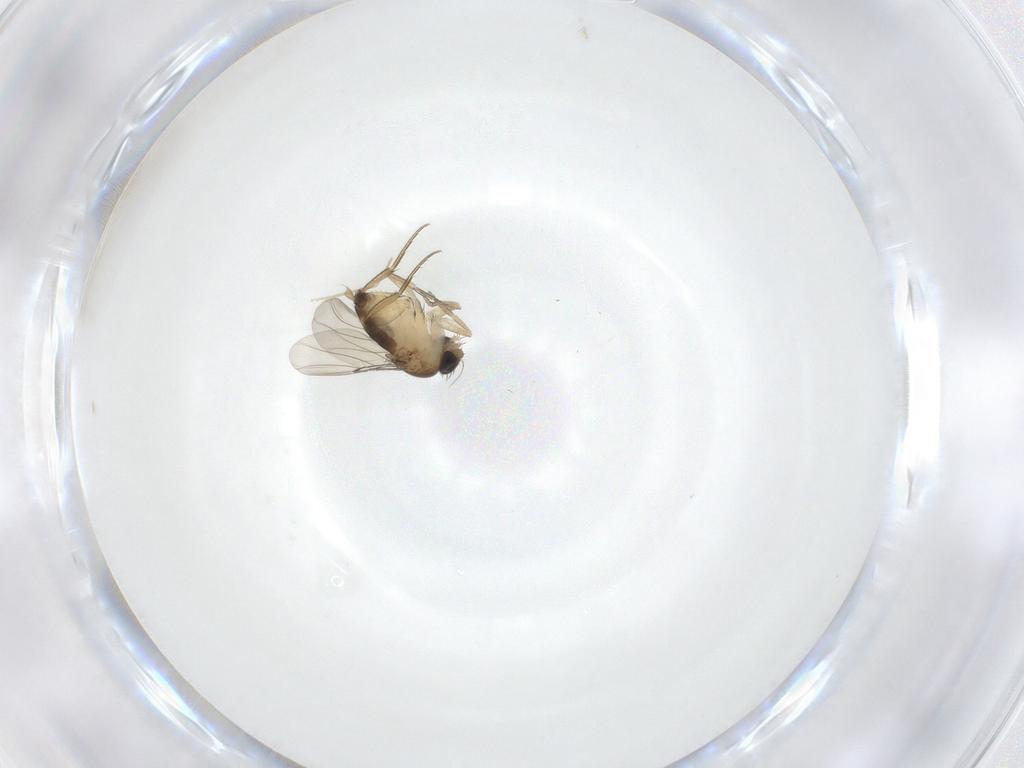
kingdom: Animalia
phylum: Arthropoda
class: Insecta
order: Diptera
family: Phoridae
